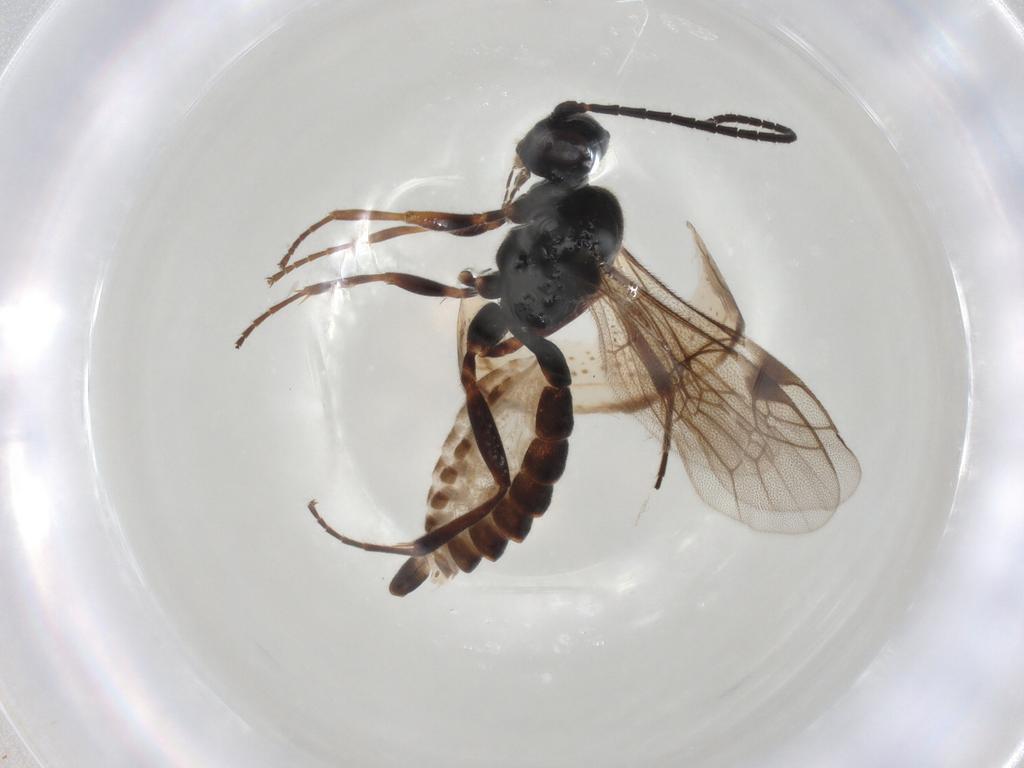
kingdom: Animalia
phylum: Arthropoda
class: Insecta
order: Hymenoptera
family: Ichneumonidae
